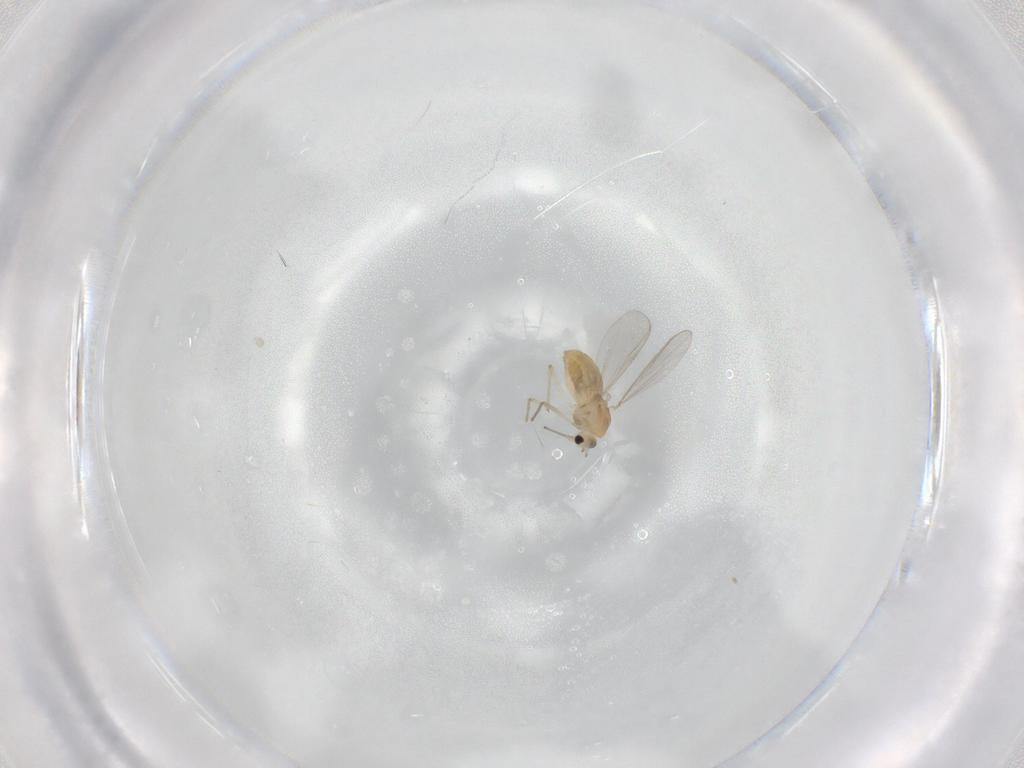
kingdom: Animalia
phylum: Arthropoda
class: Insecta
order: Diptera
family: Chironomidae
